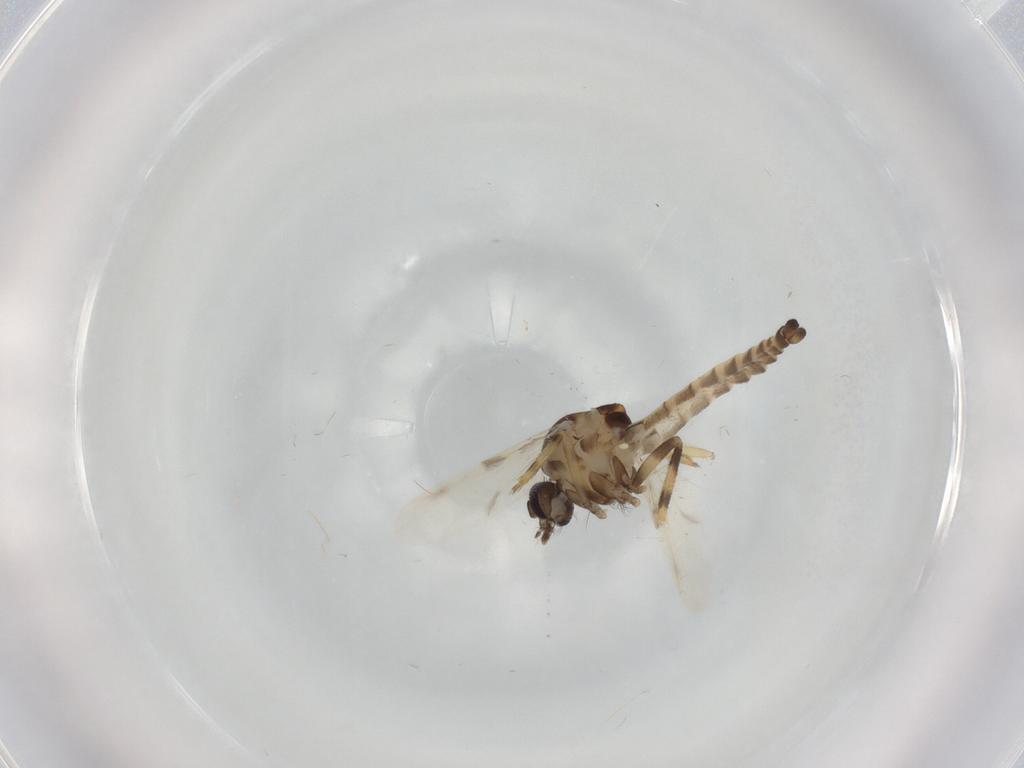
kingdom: Animalia
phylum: Arthropoda
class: Insecta
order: Diptera
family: Ceratopogonidae
